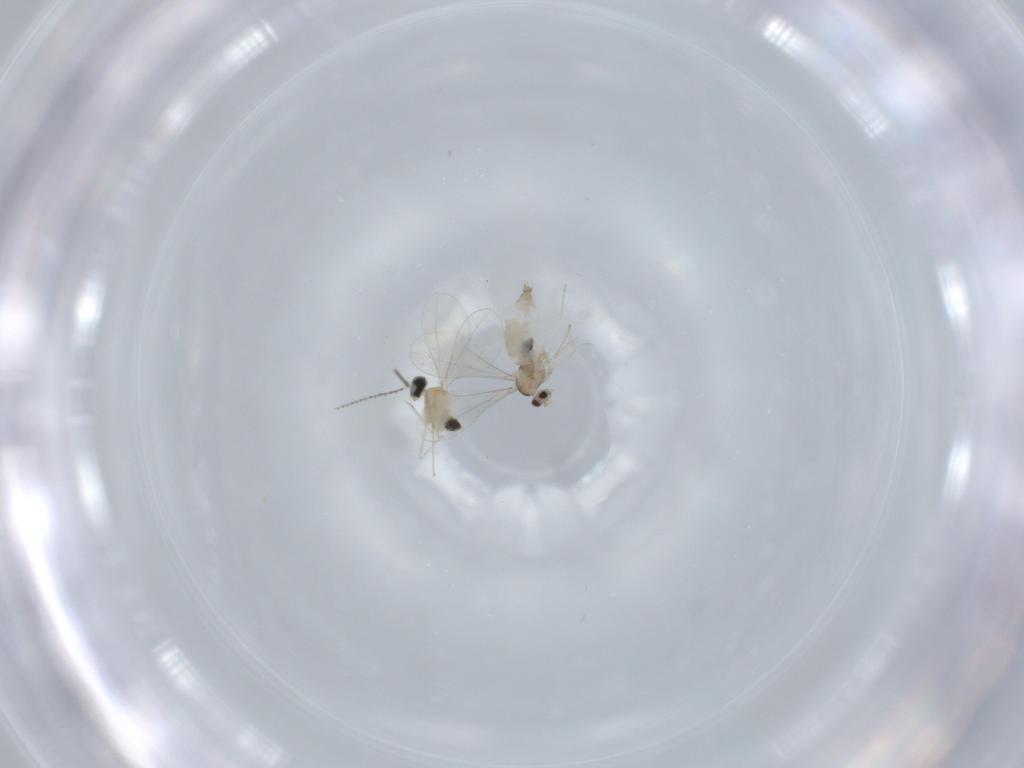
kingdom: Animalia
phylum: Arthropoda
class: Insecta
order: Diptera
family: Cecidomyiidae
